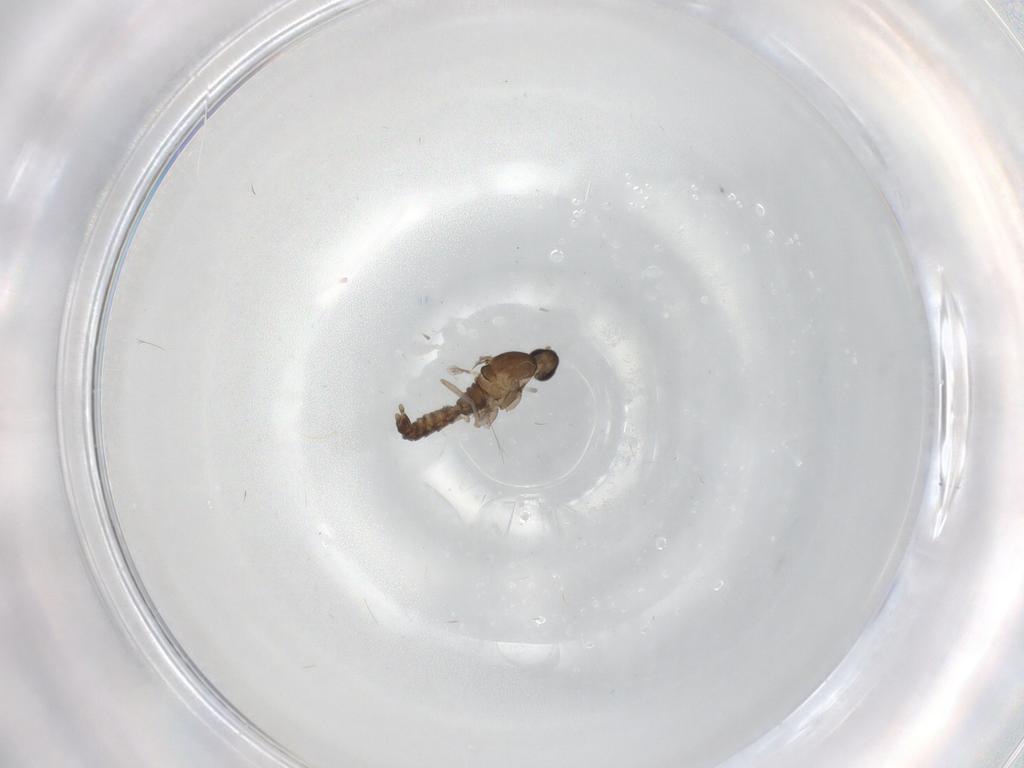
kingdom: Animalia
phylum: Arthropoda
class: Insecta
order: Diptera
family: Cecidomyiidae
